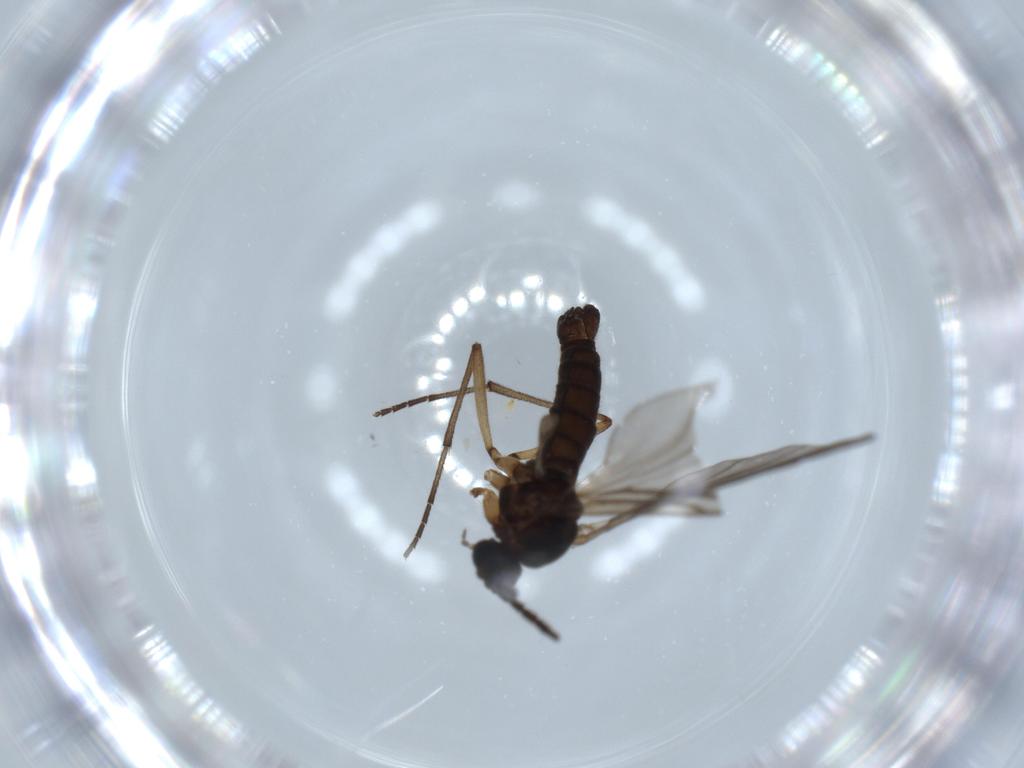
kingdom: Animalia
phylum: Arthropoda
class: Insecta
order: Diptera
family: Sciaridae
